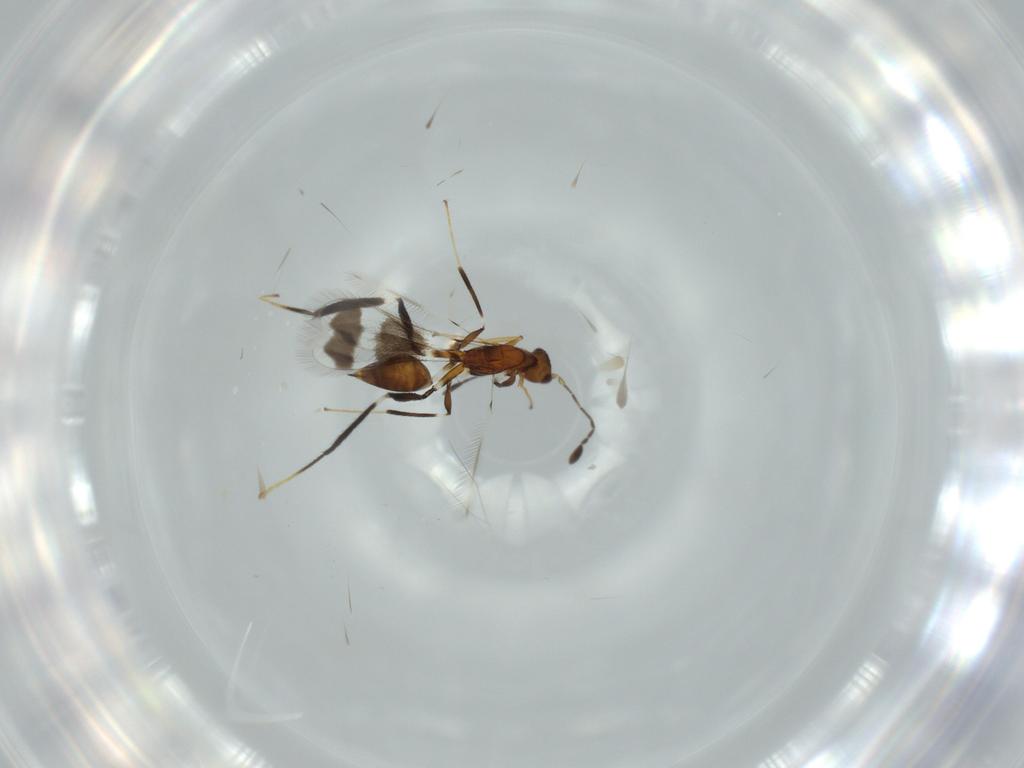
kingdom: Animalia
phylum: Arthropoda
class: Insecta
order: Hymenoptera
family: Mymaridae
